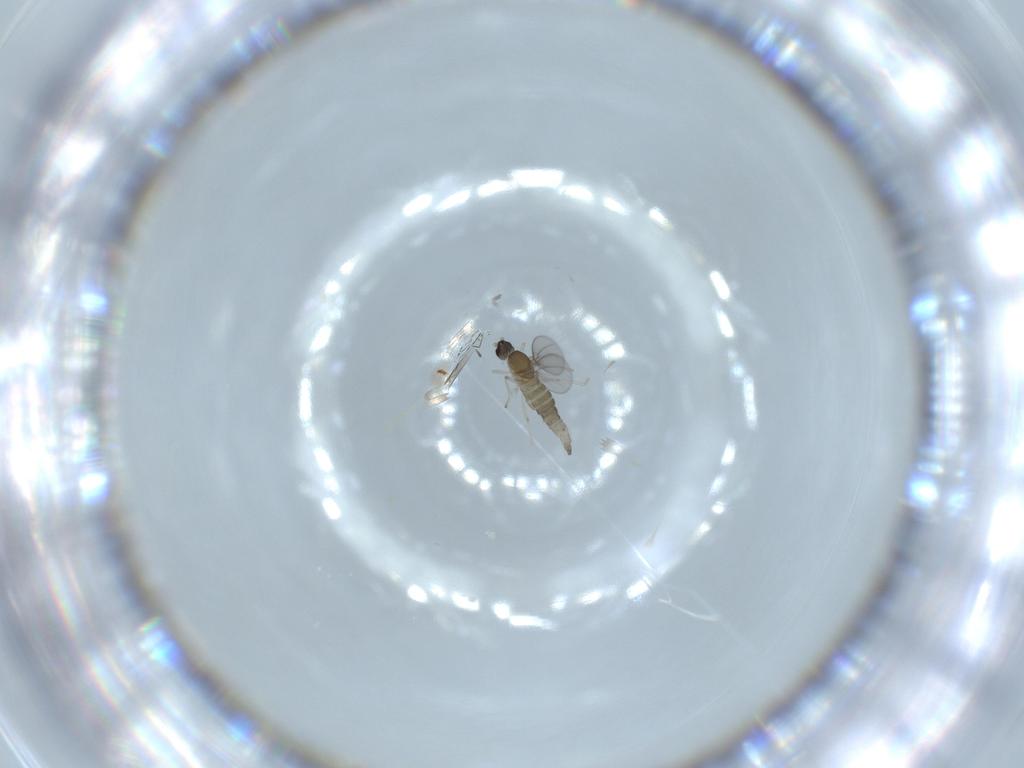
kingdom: Animalia
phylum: Arthropoda
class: Insecta
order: Diptera
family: Cecidomyiidae
